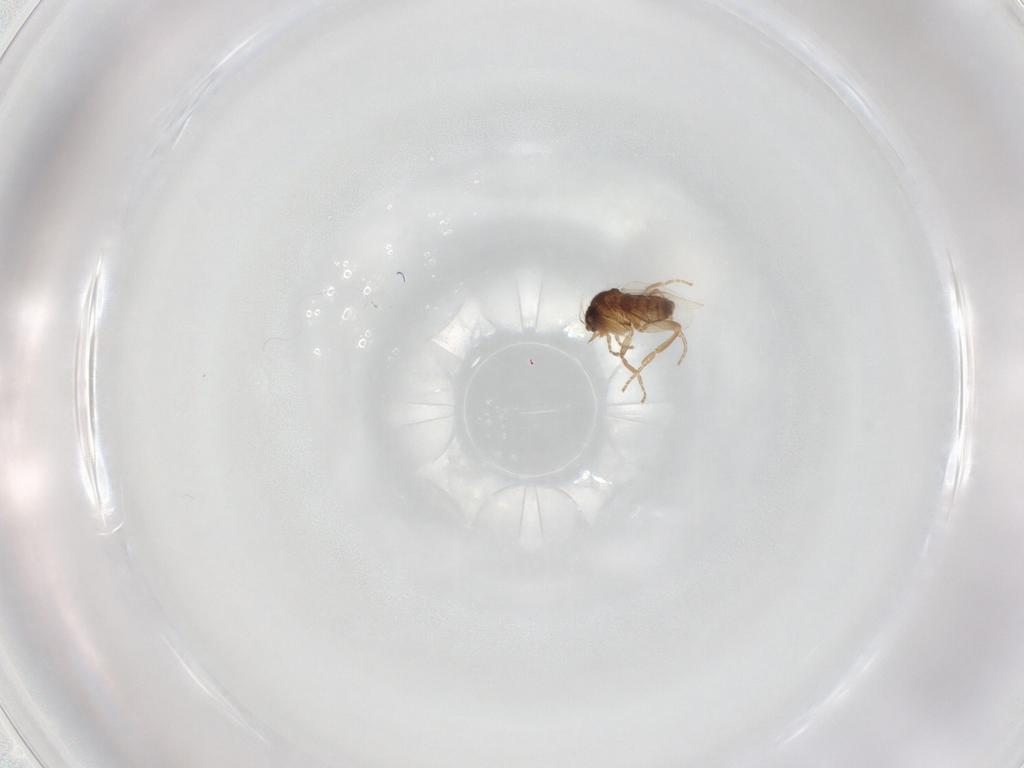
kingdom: Animalia
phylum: Arthropoda
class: Insecta
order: Diptera
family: Phoridae
